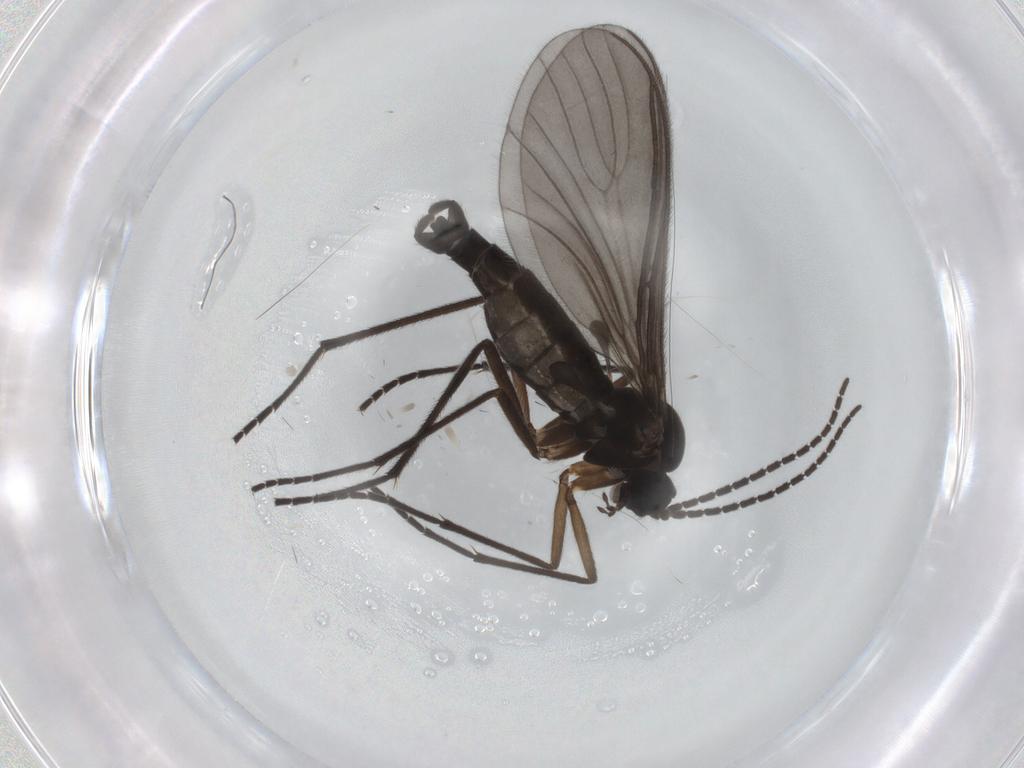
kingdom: Animalia
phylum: Arthropoda
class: Insecta
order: Diptera
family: Sciaridae
